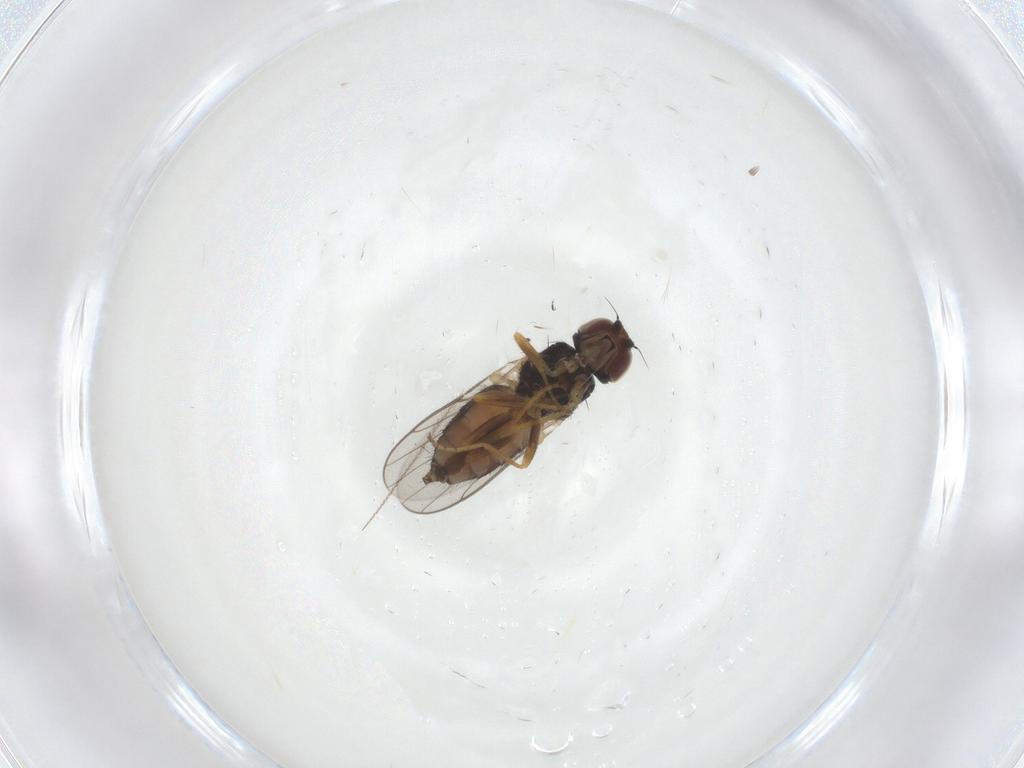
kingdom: Animalia
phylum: Arthropoda
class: Insecta
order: Diptera
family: Chloropidae
